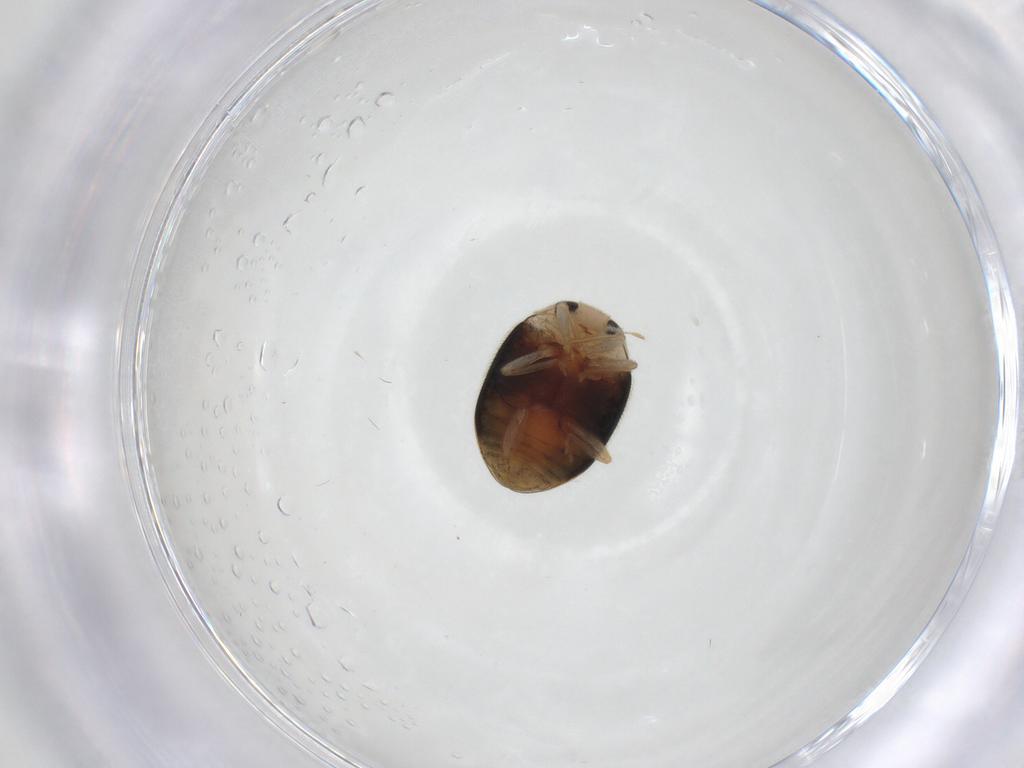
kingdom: Animalia
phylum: Arthropoda
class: Insecta
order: Coleoptera
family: Coccinellidae
